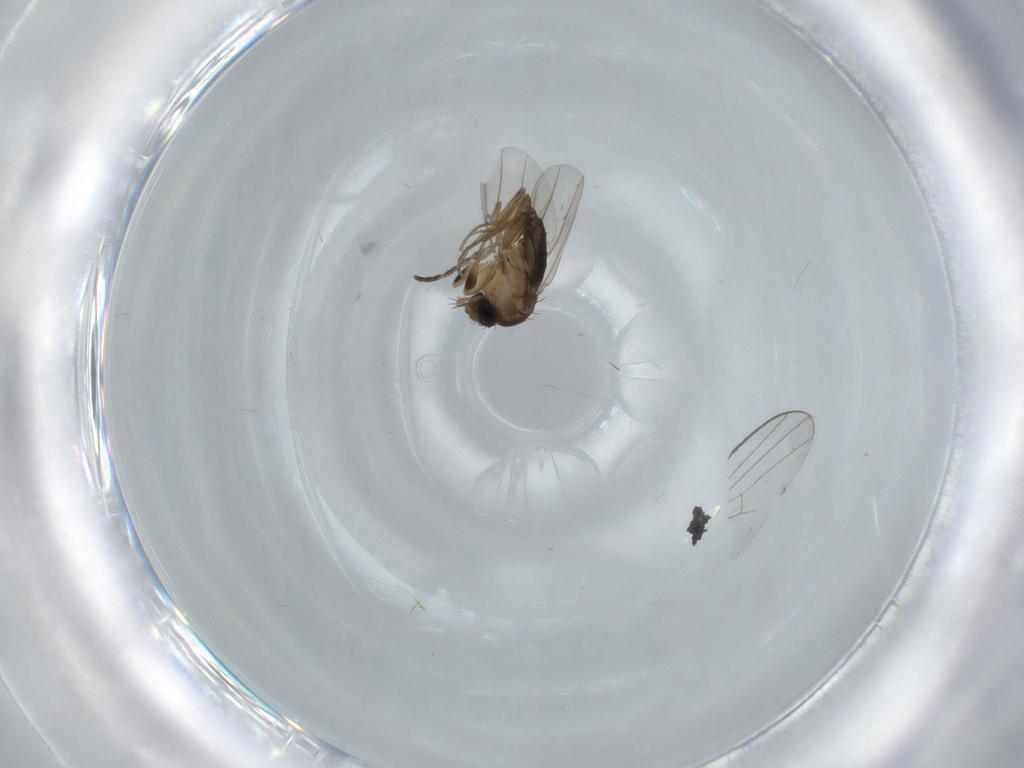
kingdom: Animalia
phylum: Arthropoda
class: Insecta
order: Diptera
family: Phoridae
